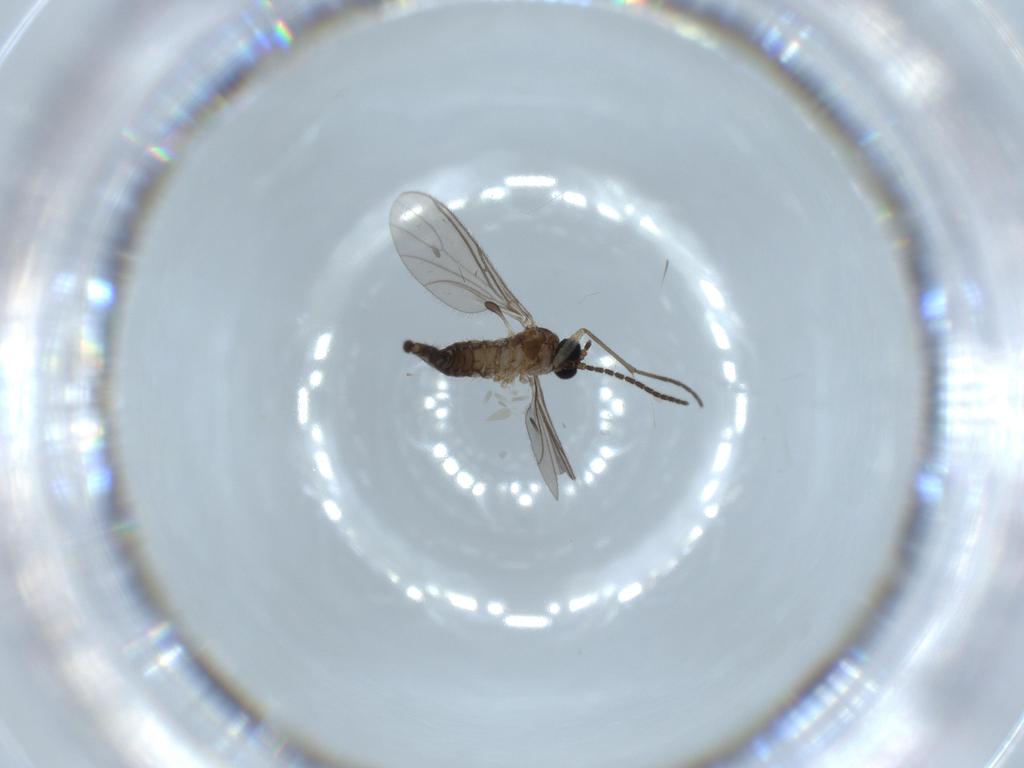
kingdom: Animalia
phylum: Arthropoda
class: Insecta
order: Diptera
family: Sciaridae
